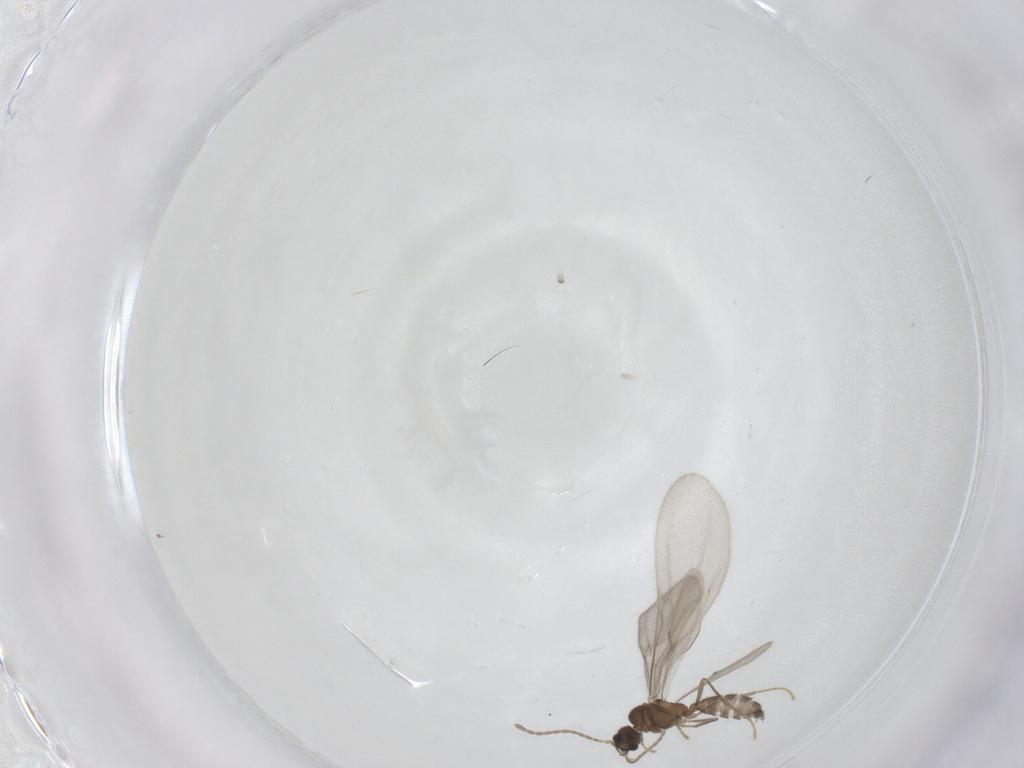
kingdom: Animalia
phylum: Arthropoda
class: Insecta
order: Hymenoptera
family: Formicidae
